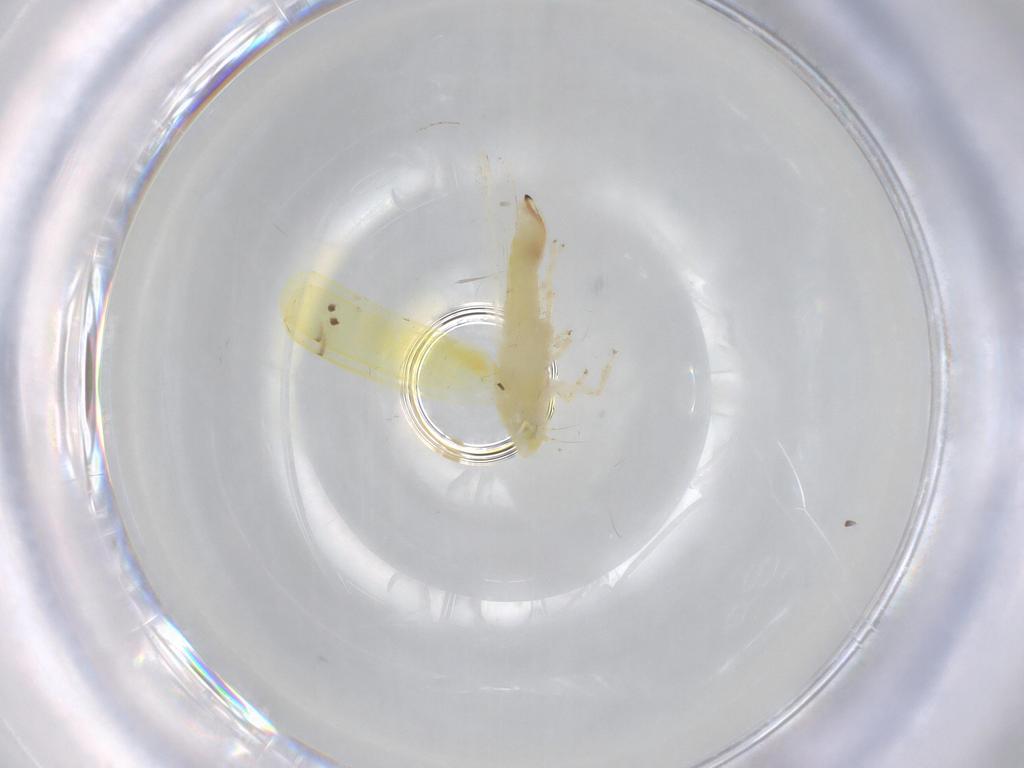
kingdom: Animalia
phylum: Arthropoda
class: Insecta
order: Hemiptera
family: Cicadellidae
